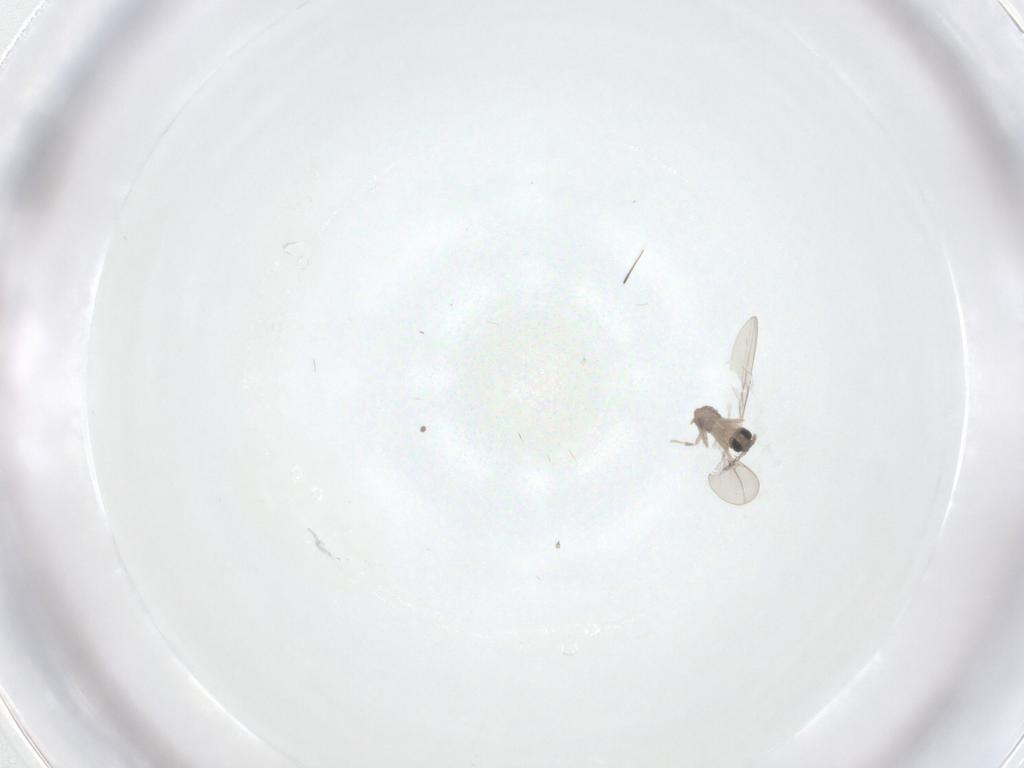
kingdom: Animalia
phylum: Arthropoda
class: Insecta
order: Diptera
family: Cecidomyiidae
